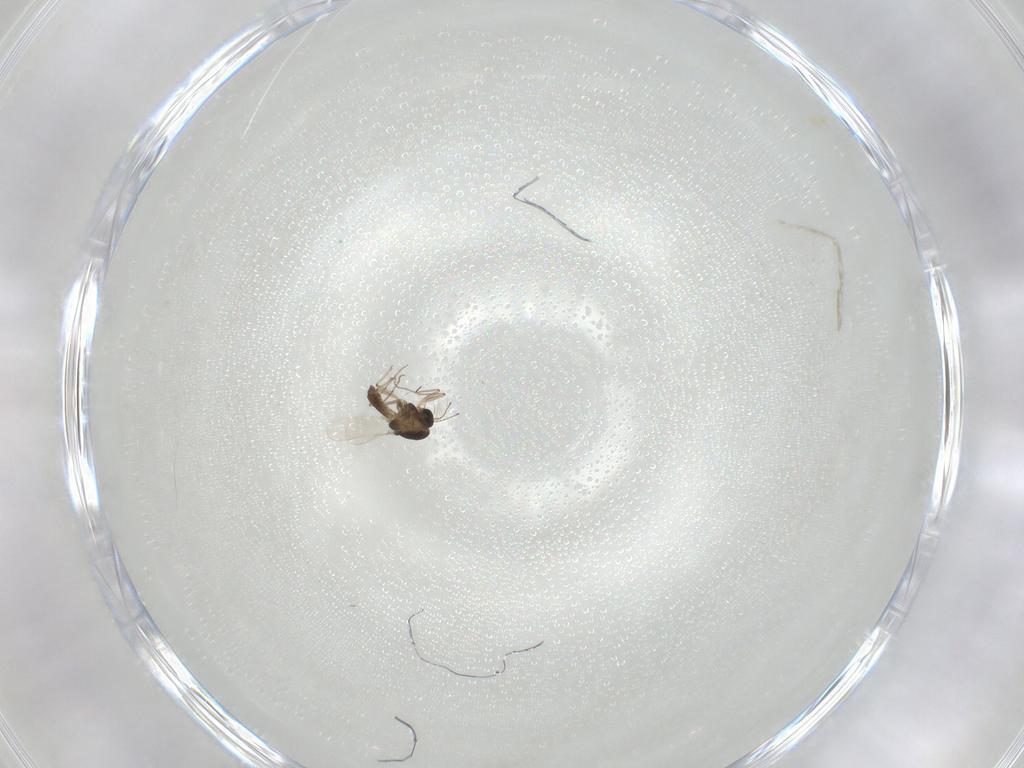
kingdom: Animalia
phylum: Arthropoda
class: Insecta
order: Diptera
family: Chironomidae
